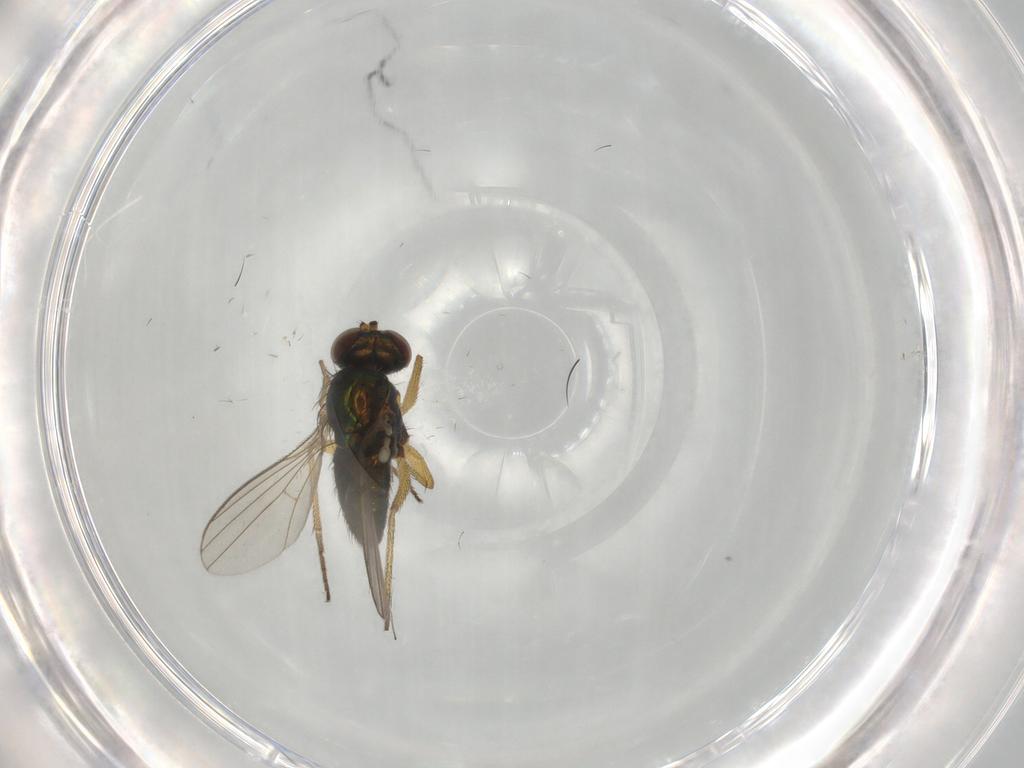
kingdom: Animalia
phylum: Arthropoda
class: Insecta
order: Diptera
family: Dolichopodidae
